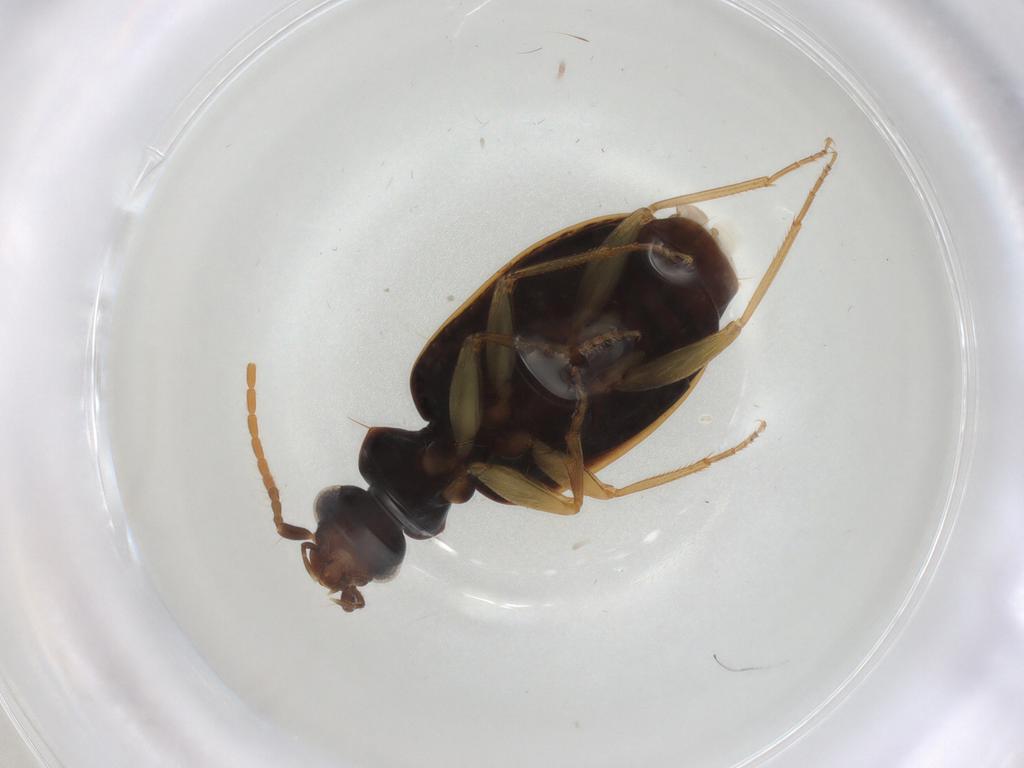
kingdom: Animalia
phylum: Arthropoda
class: Insecta
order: Coleoptera
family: Carabidae
